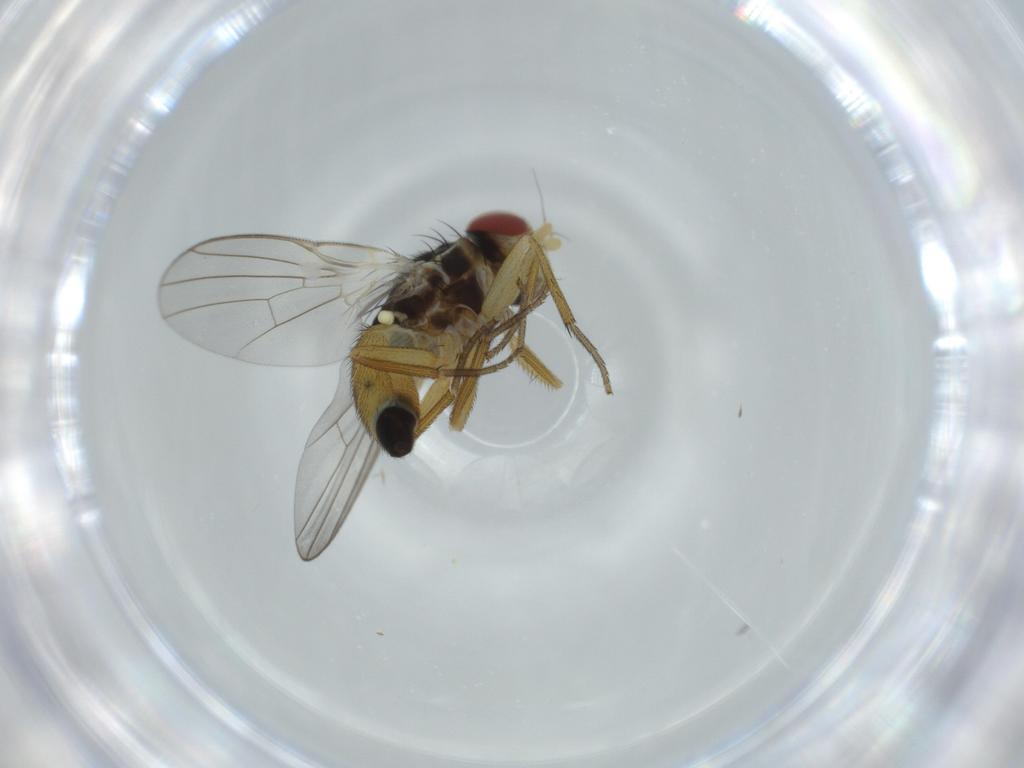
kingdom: Animalia
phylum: Arthropoda
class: Insecta
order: Diptera
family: Agromyzidae
